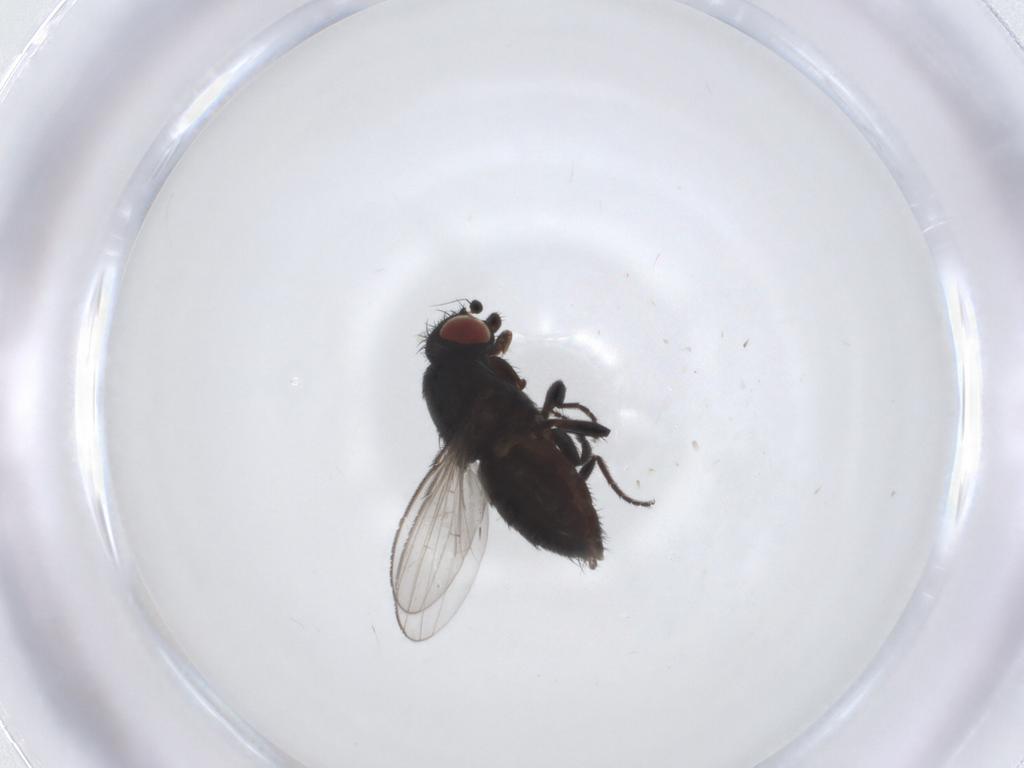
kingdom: Animalia
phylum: Arthropoda
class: Insecta
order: Diptera
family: Milichiidae
